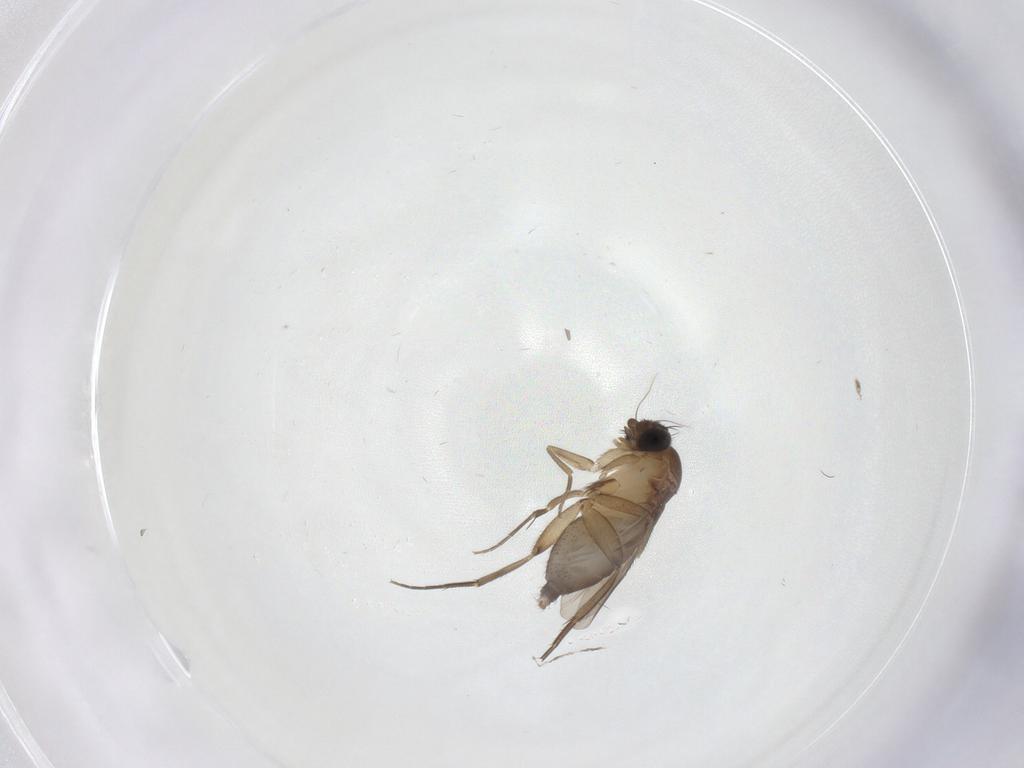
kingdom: Animalia
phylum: Arthropoda
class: Insecta
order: Diptera
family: Phoridae
